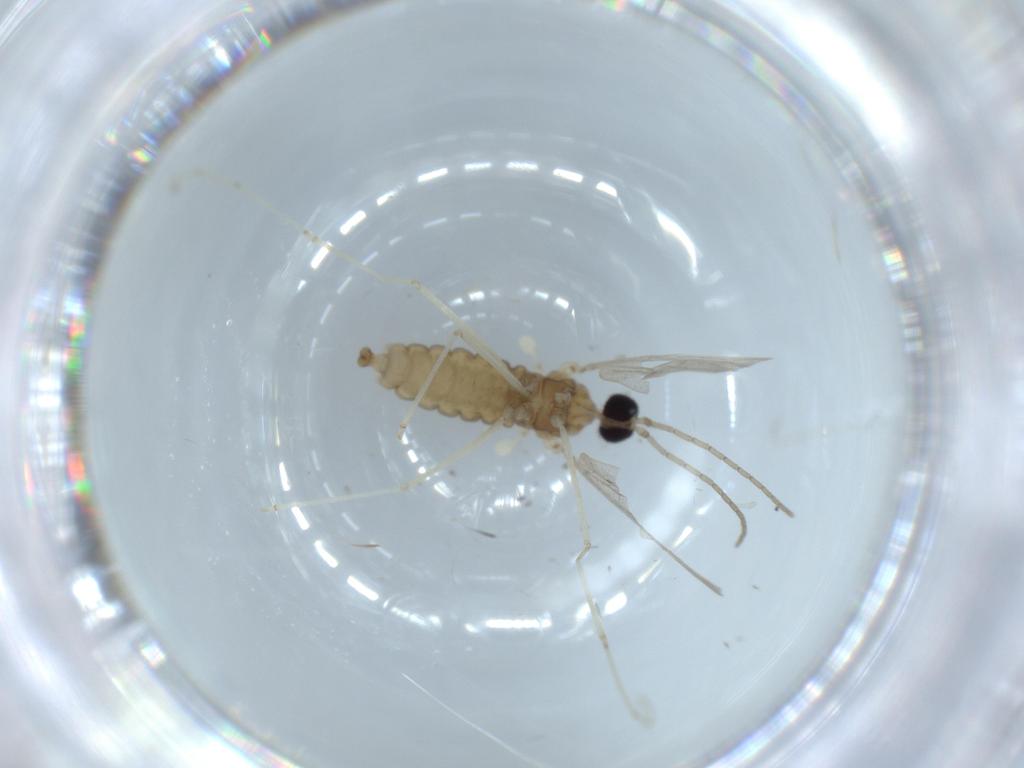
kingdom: Animalia
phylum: Arthropoda
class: Insecta
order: Diptera
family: Cecidomyiidae
